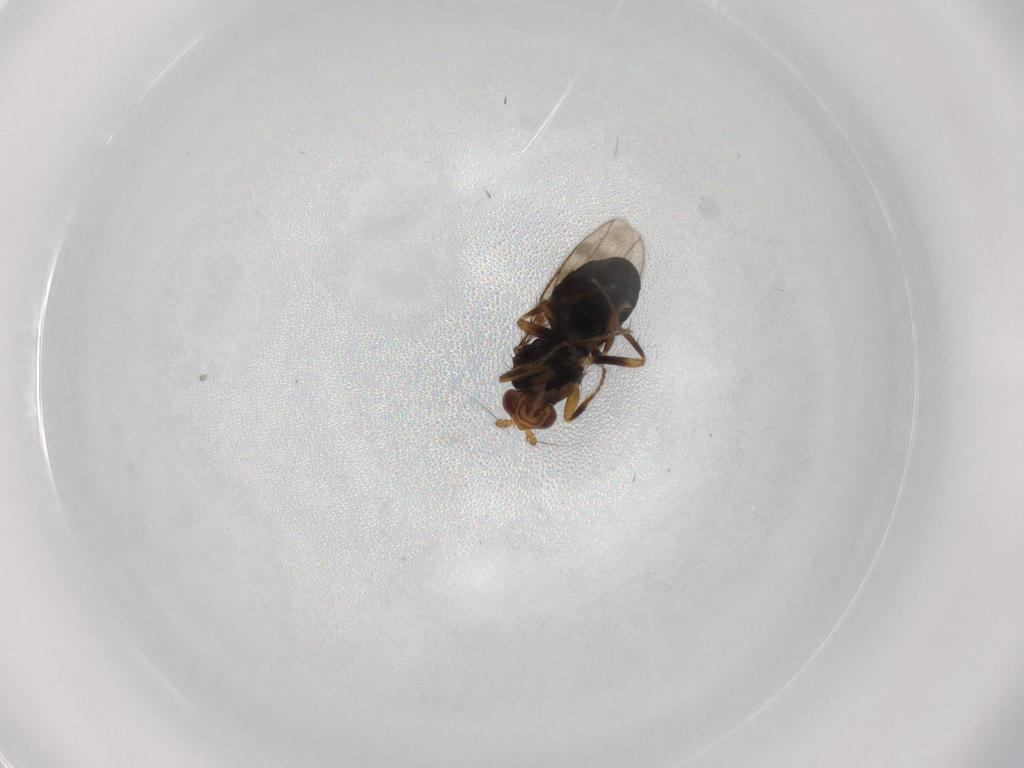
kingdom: Animalia
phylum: Arthropoda
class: Insecta
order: Diptera
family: Sphaeroceridae
